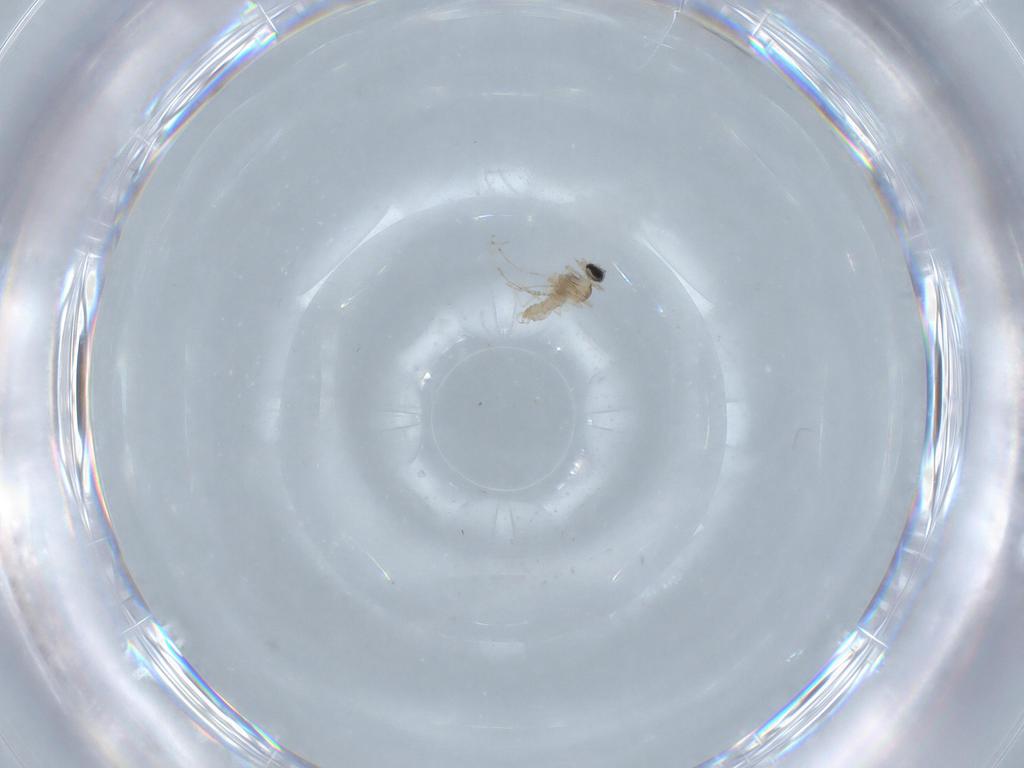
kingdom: Animalia
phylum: Arthropoda
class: Insecta
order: Diptera
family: Cecidomyiidae
